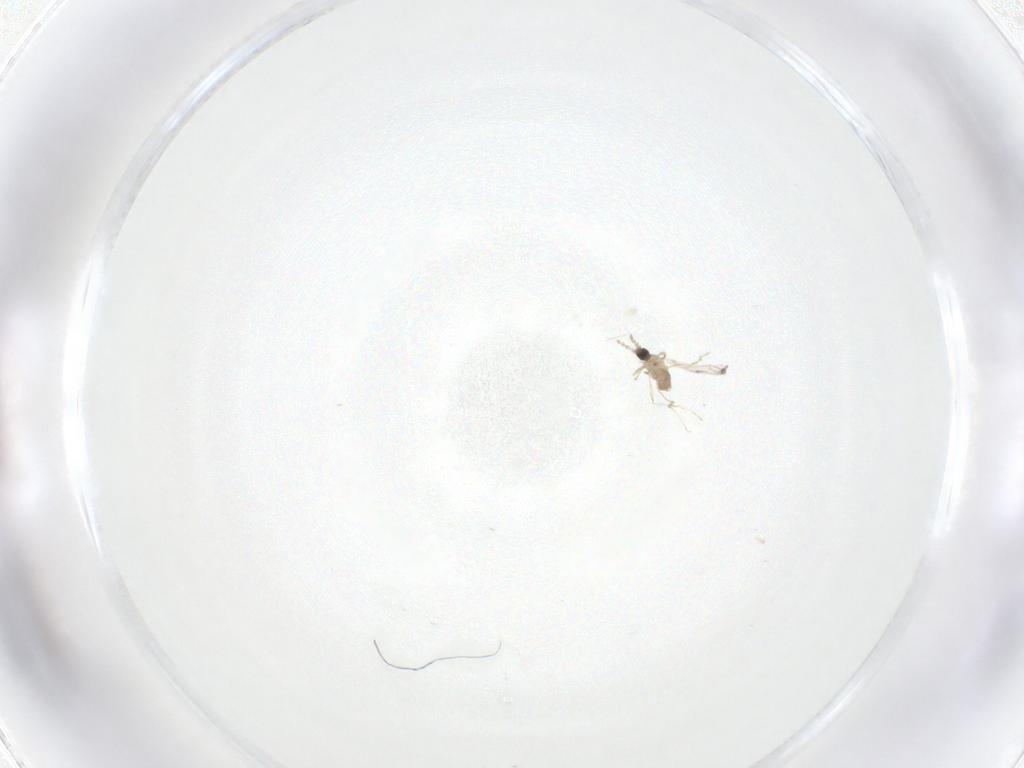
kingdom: Animalia
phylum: Arthropoda
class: Insecta
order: Diptera
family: Cecidomyiidae
